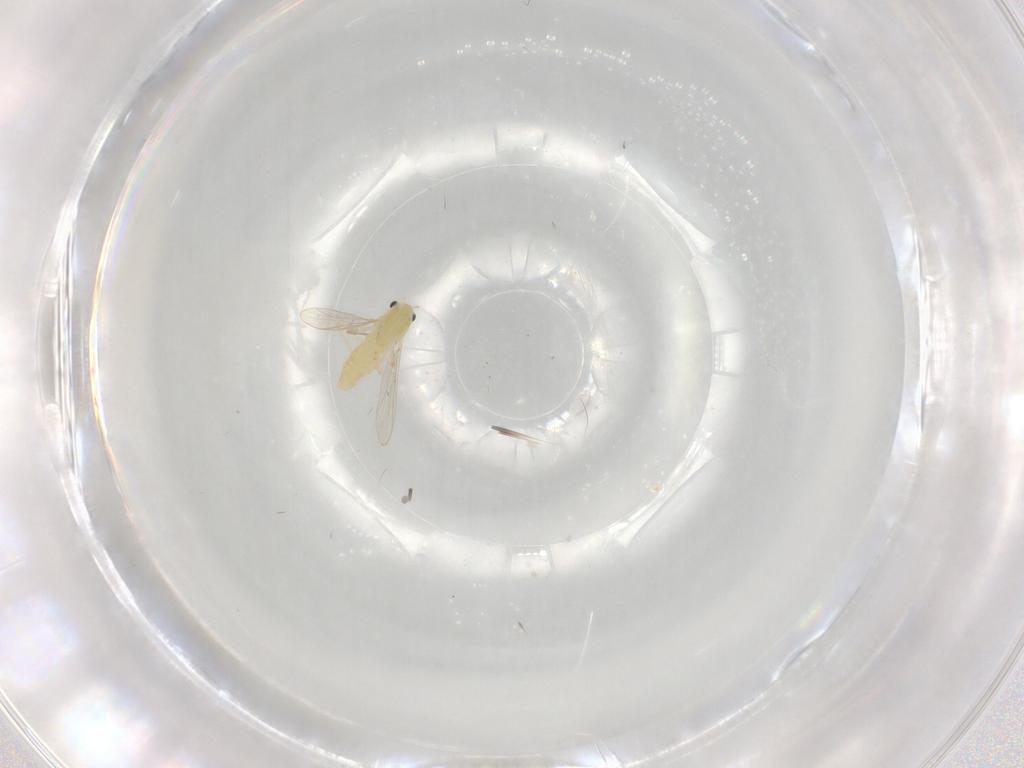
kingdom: Animalia
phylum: Arthropoda
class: Insecta
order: Diptera
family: Chironomidae
